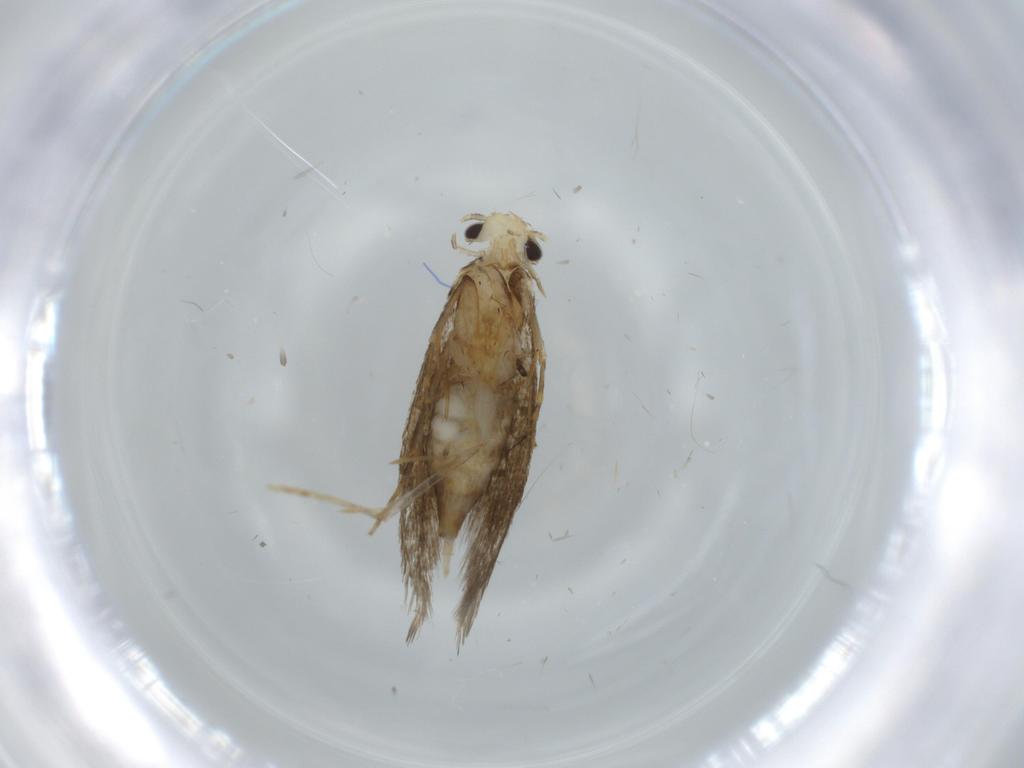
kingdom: Animalia
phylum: Arthropoda
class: Insecta
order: Lepidoptera
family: Tineidae
